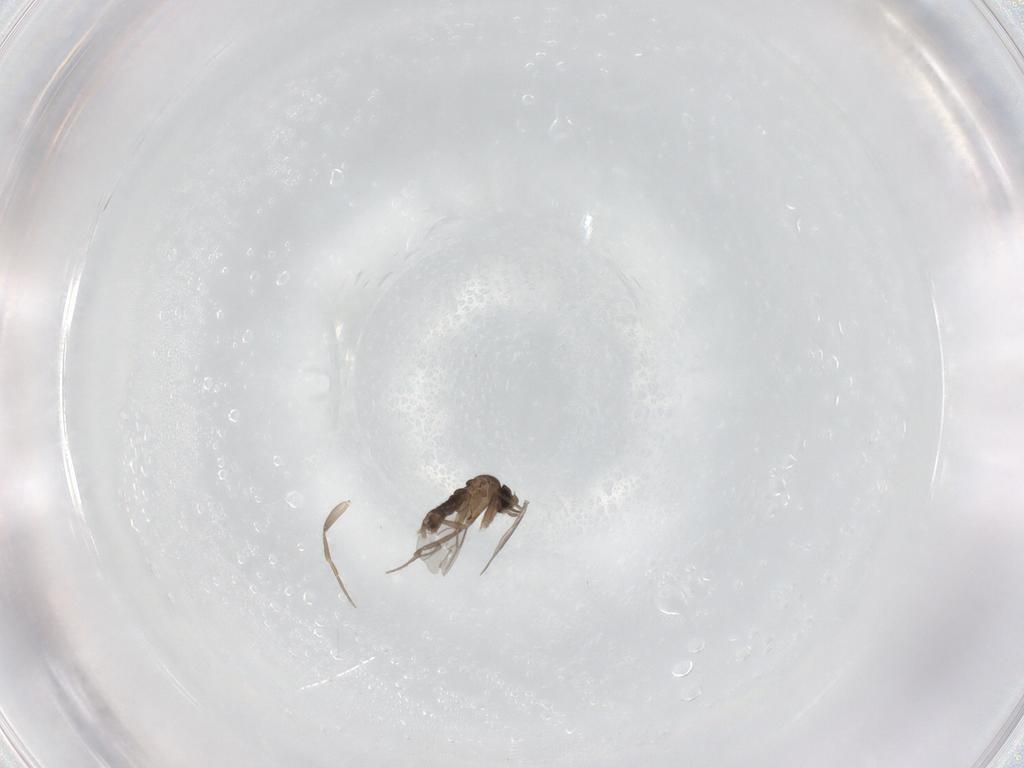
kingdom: Animalia
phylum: Arthropoda
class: Insecta
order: Diptera
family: Phoridae
